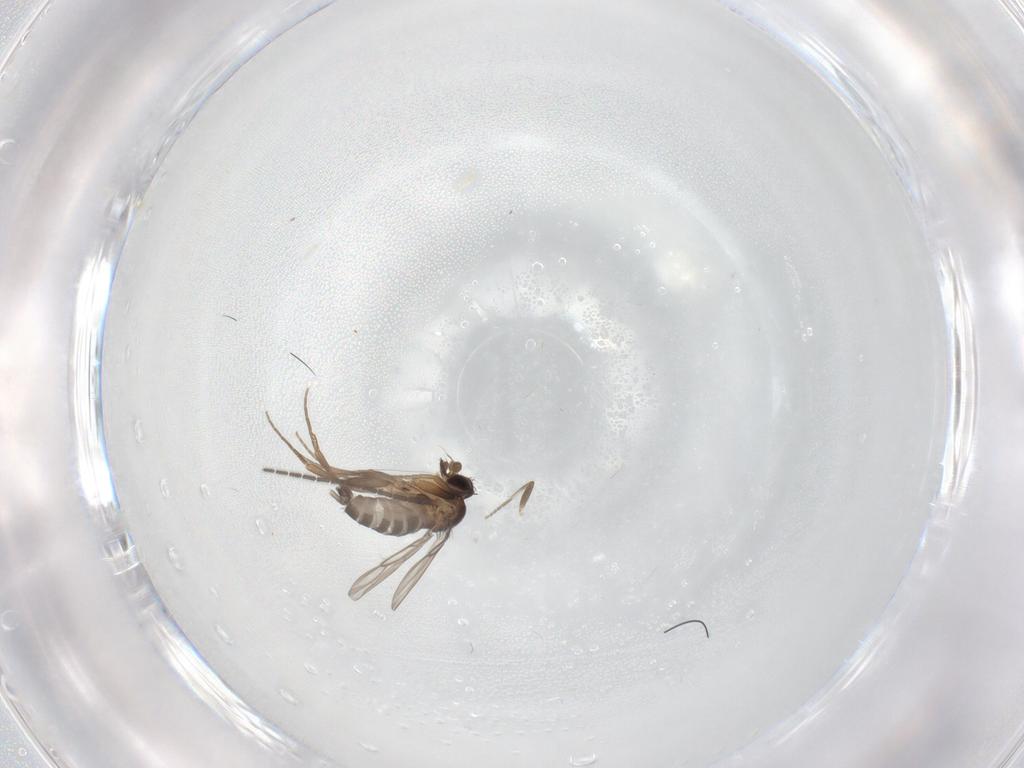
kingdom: Animalia
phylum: Arthropoda
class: Insecta
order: Diptera
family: Sciaridae
